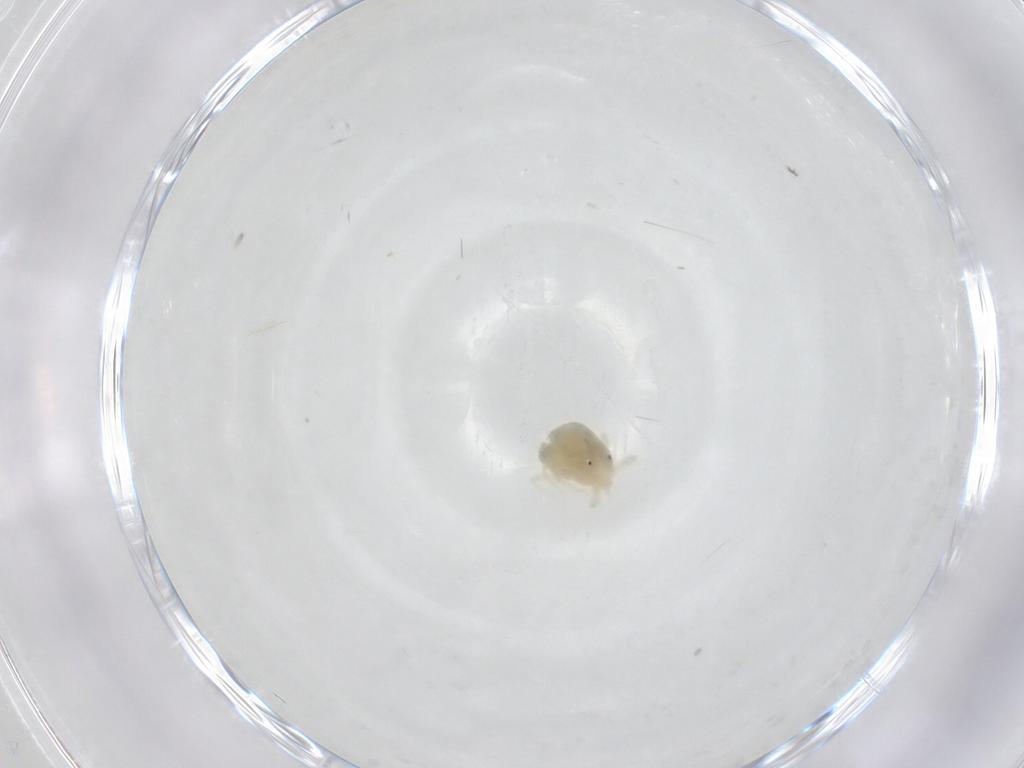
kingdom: Animalia
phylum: Arthropoda
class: Arachnida
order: Trombidiformes
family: Anystidae
